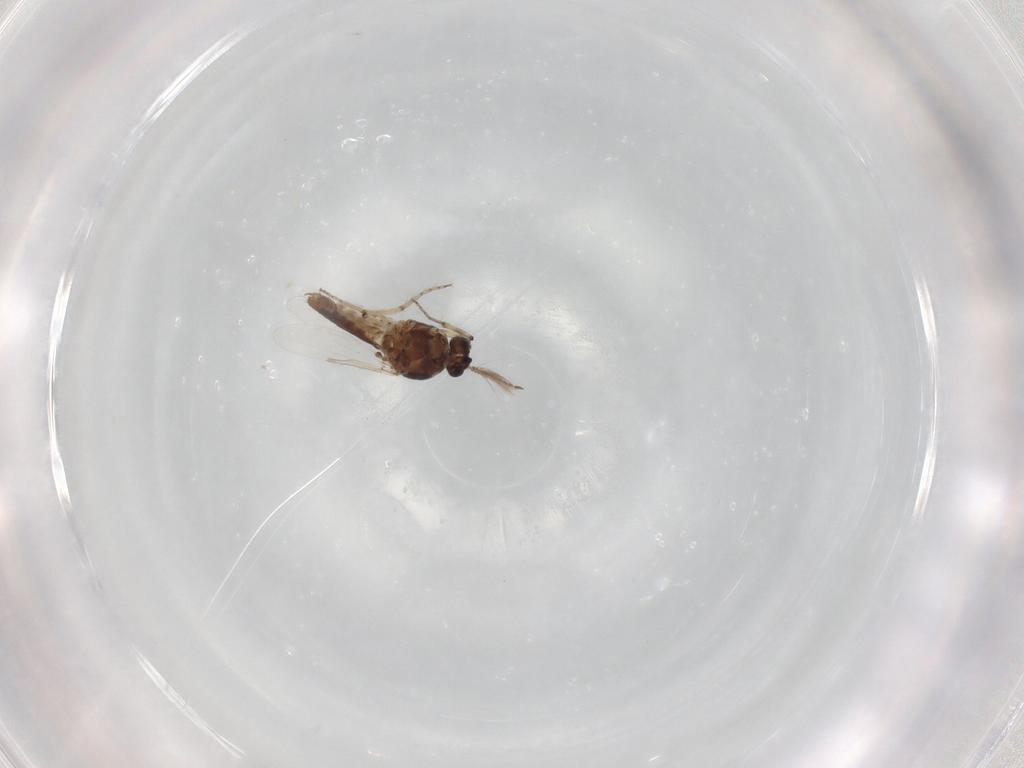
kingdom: Animalia
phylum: Arthropoda
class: Insecta
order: Diptera
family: Ceratopogonidae
